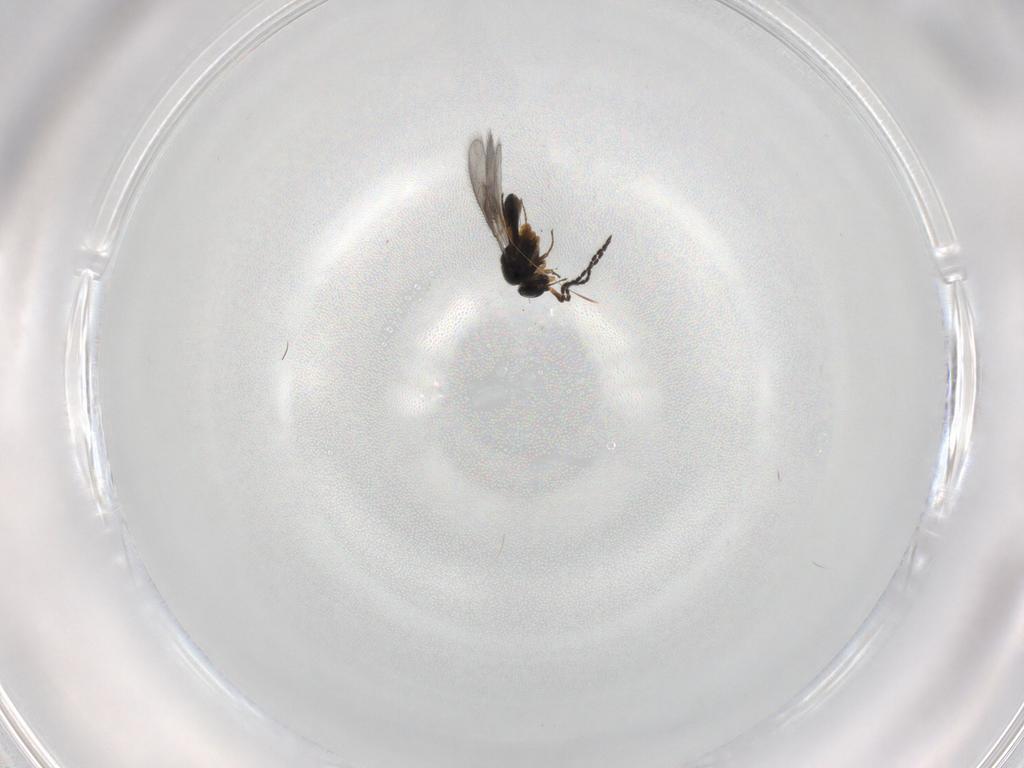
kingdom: Animalia
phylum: Arthropoda
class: Insecta
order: Hymenoptera
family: Scelionidae
